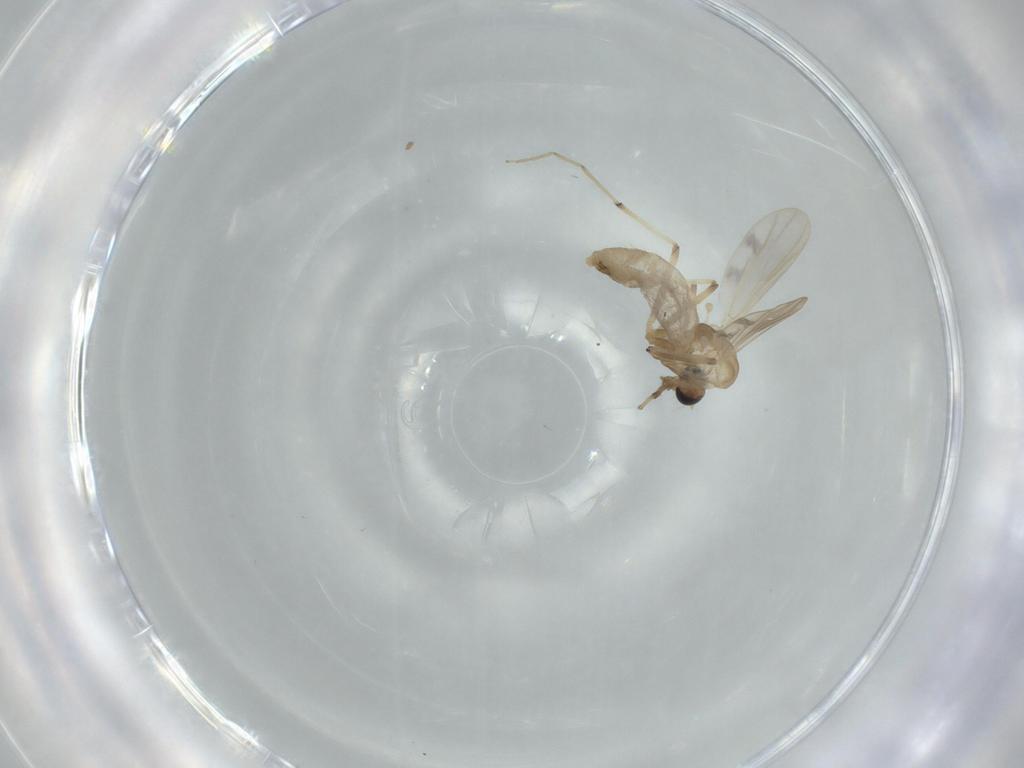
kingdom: Animalia
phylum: Arthropoda
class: Insecta
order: Diptera
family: Chironomidae
